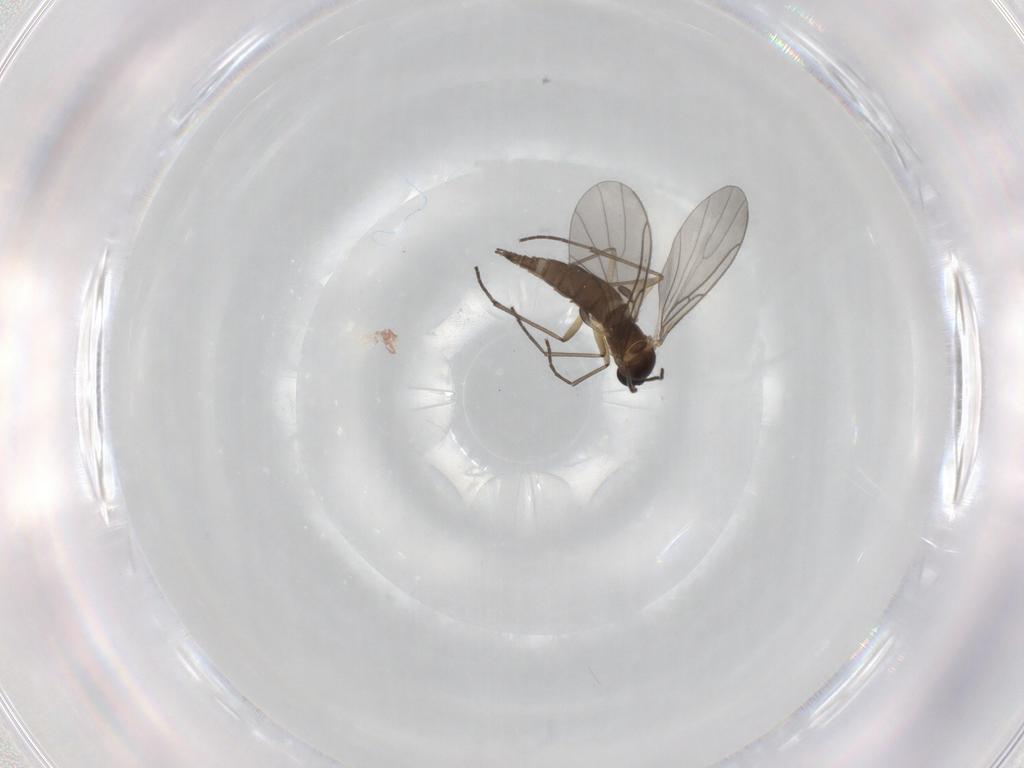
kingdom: Animalia
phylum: Arthropoda
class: Insecta
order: Diptera
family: Sciaridae
